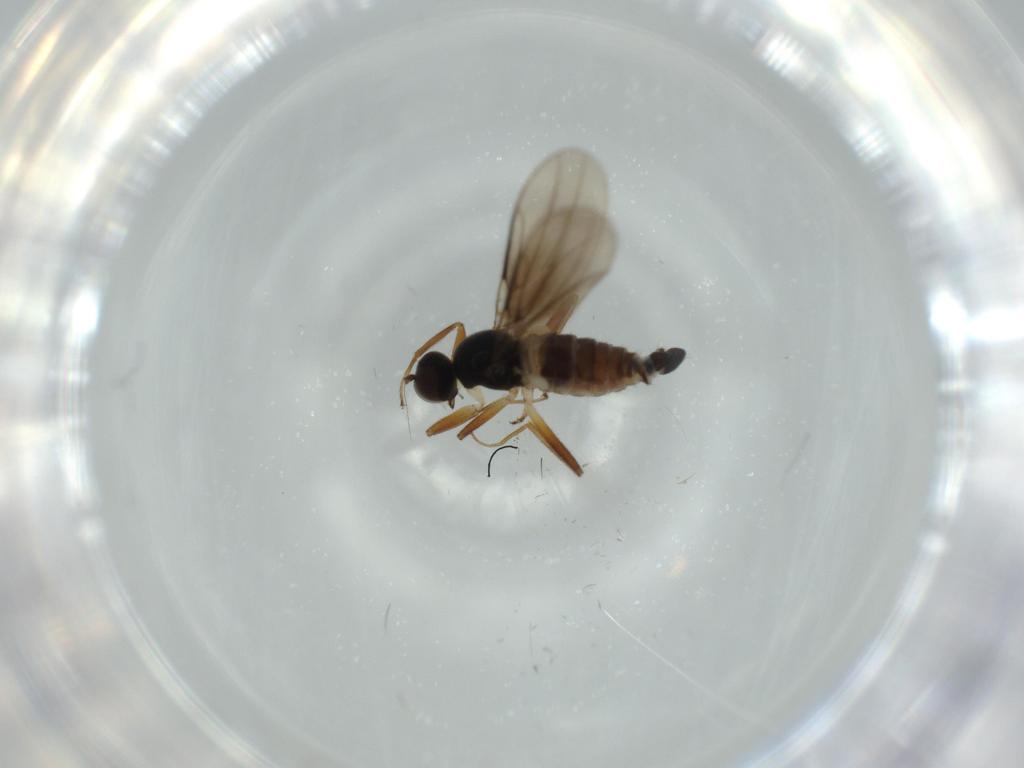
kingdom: Animalia
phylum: Arthropoda
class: Insecta
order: Diptera
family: Hybotidae
